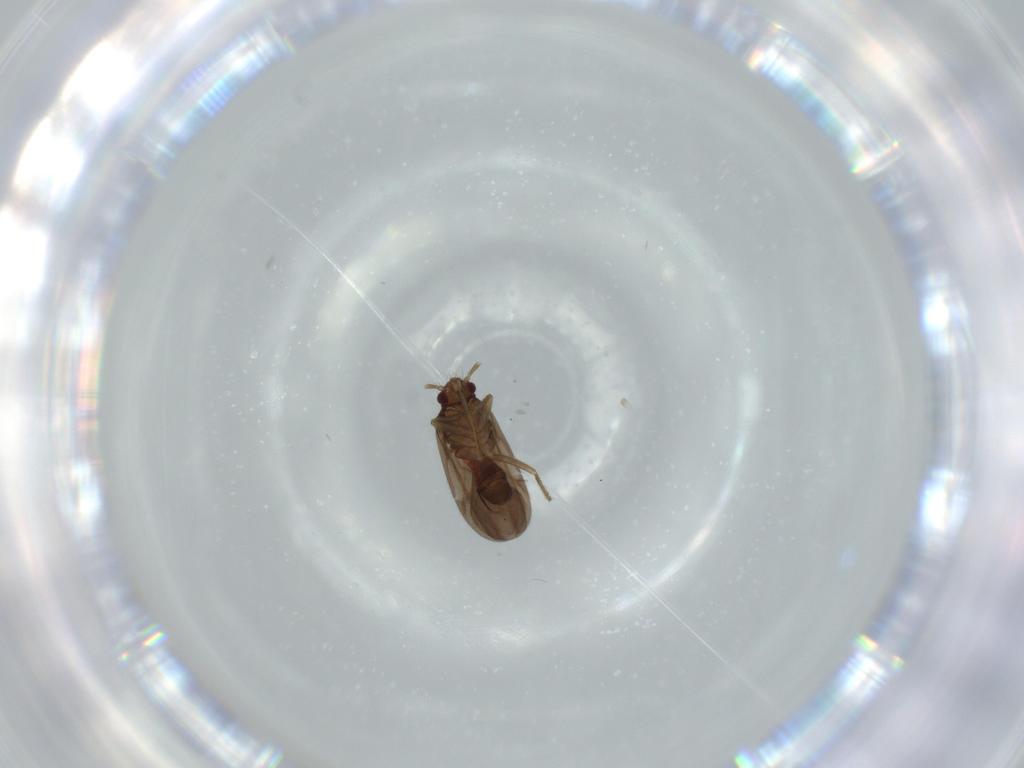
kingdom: Animalia
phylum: Arthropoda
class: Insecta
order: Hemiptera
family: Ceratocombidae
